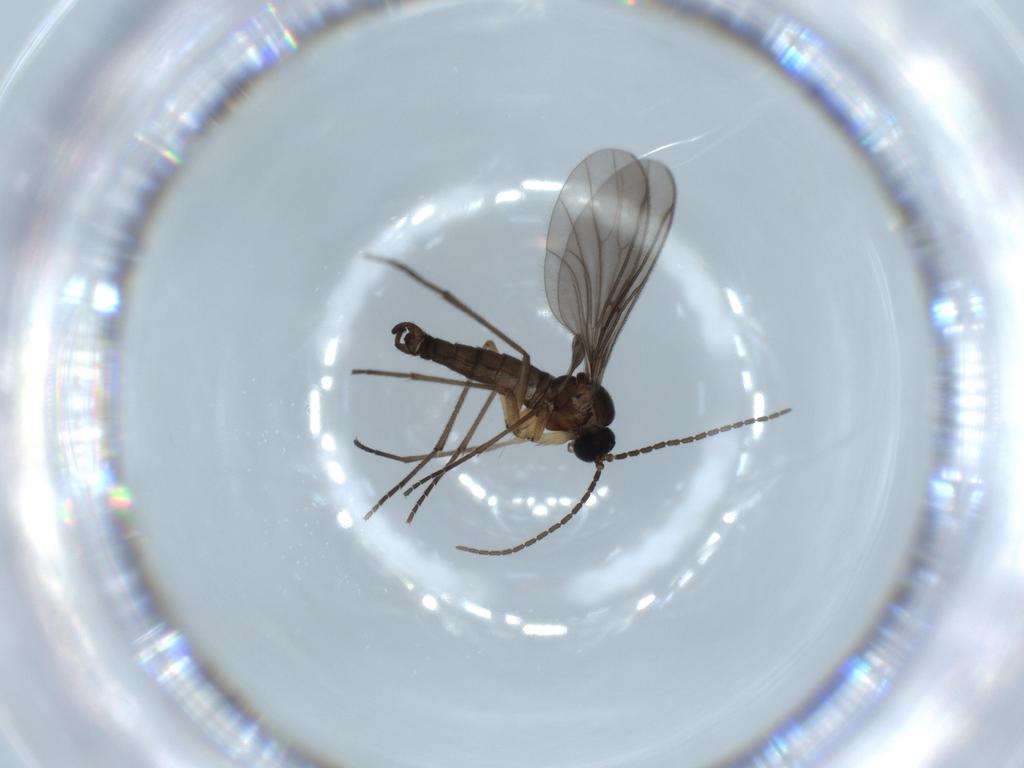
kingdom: Animalia
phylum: Arthropoda
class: Insecta
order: Diptera
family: Sciaridae
